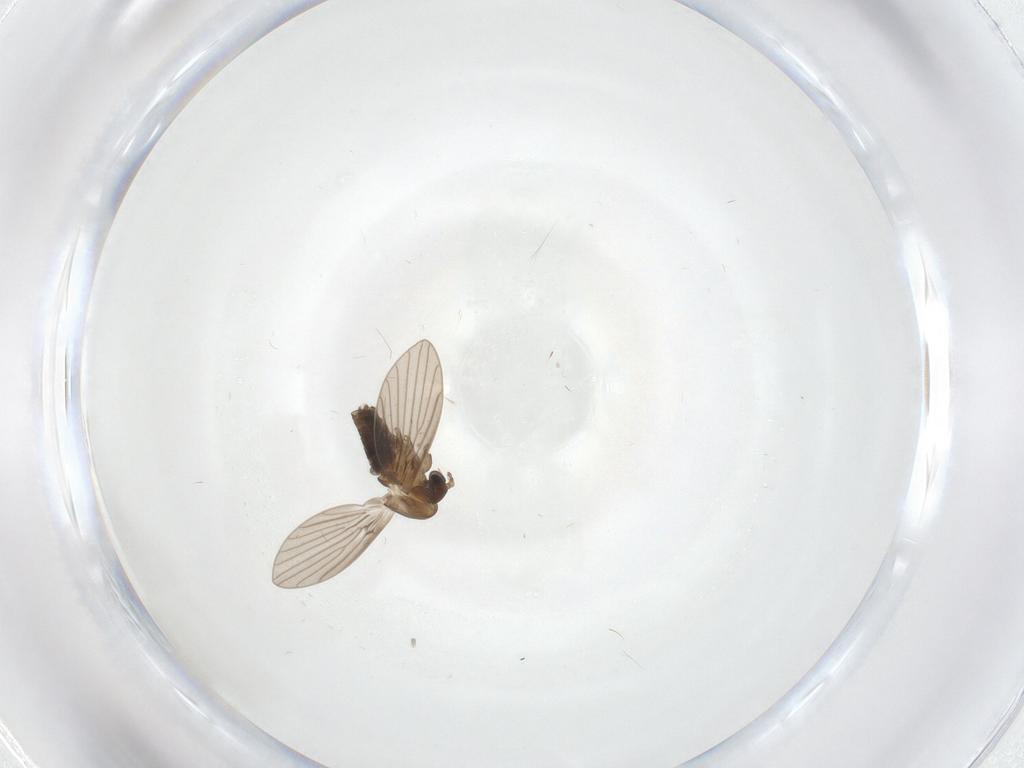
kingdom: Animalia
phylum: Arthropoda
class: Insecta
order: Diptera
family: Psychodidae
